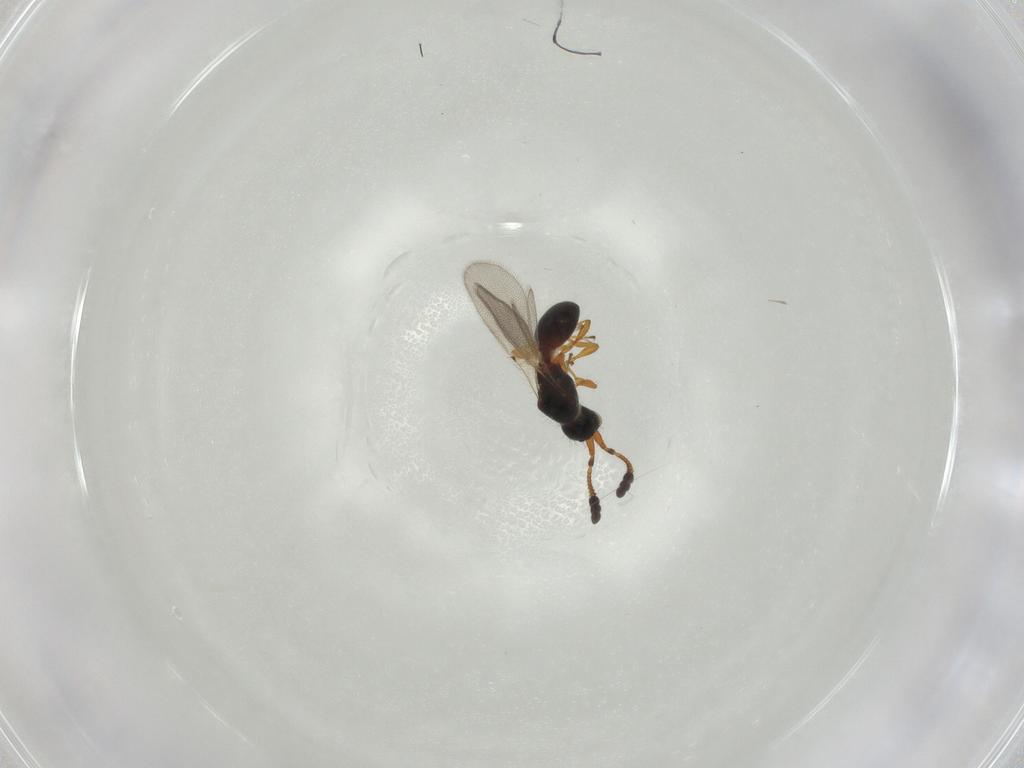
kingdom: Animalia
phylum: Arthropoda
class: Insecta
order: Hymenoptera
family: Diapriidae
